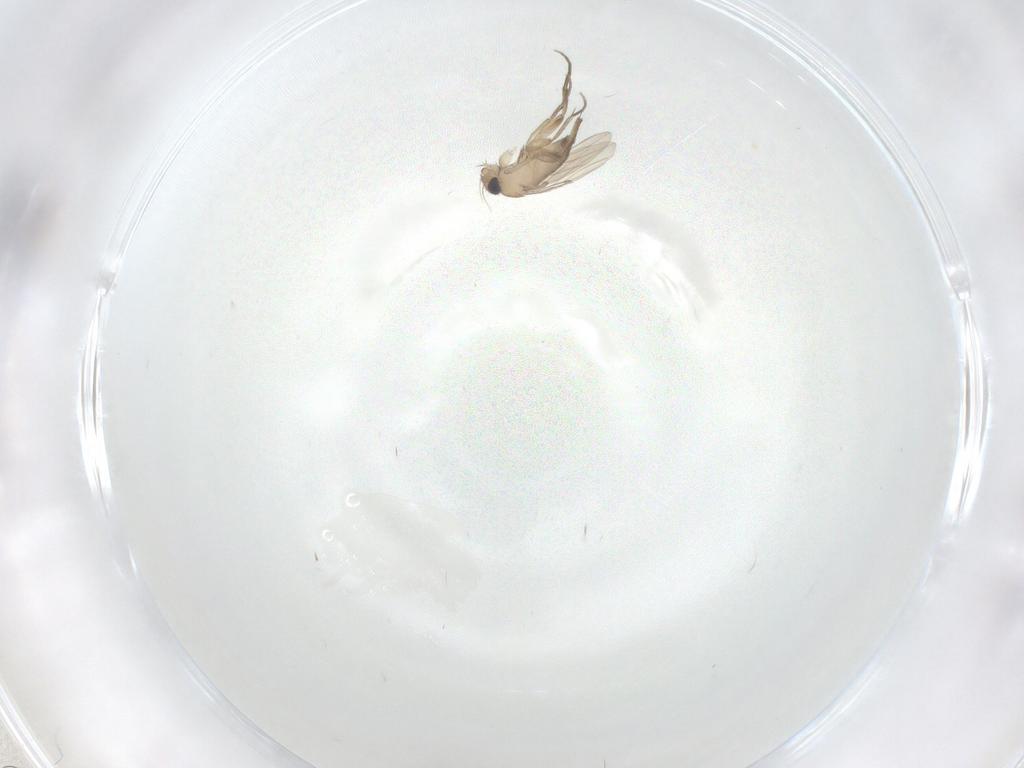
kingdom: Animalia
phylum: Arthropoda
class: Insecta
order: Diptera
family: Phoridae
